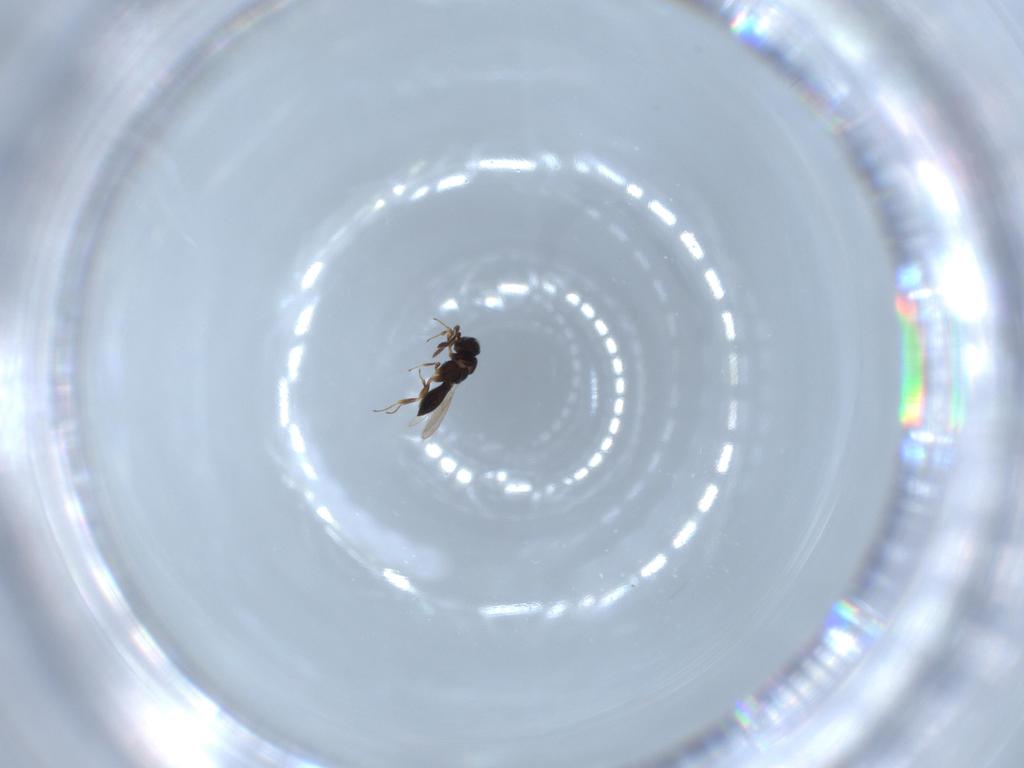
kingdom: Animalia
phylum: Arthropoda
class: Insecta
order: Hymenoptera
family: Scelionidae
